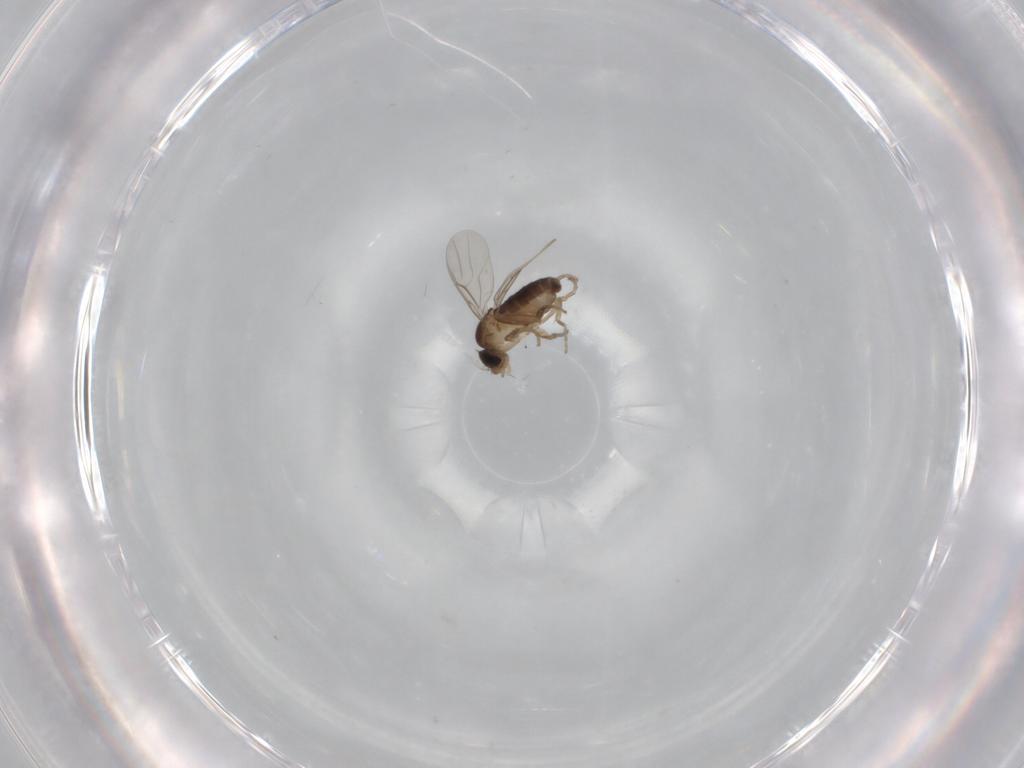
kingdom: Animalia
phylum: Arthropoda
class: Insecta
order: Diptera
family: Phoridae
